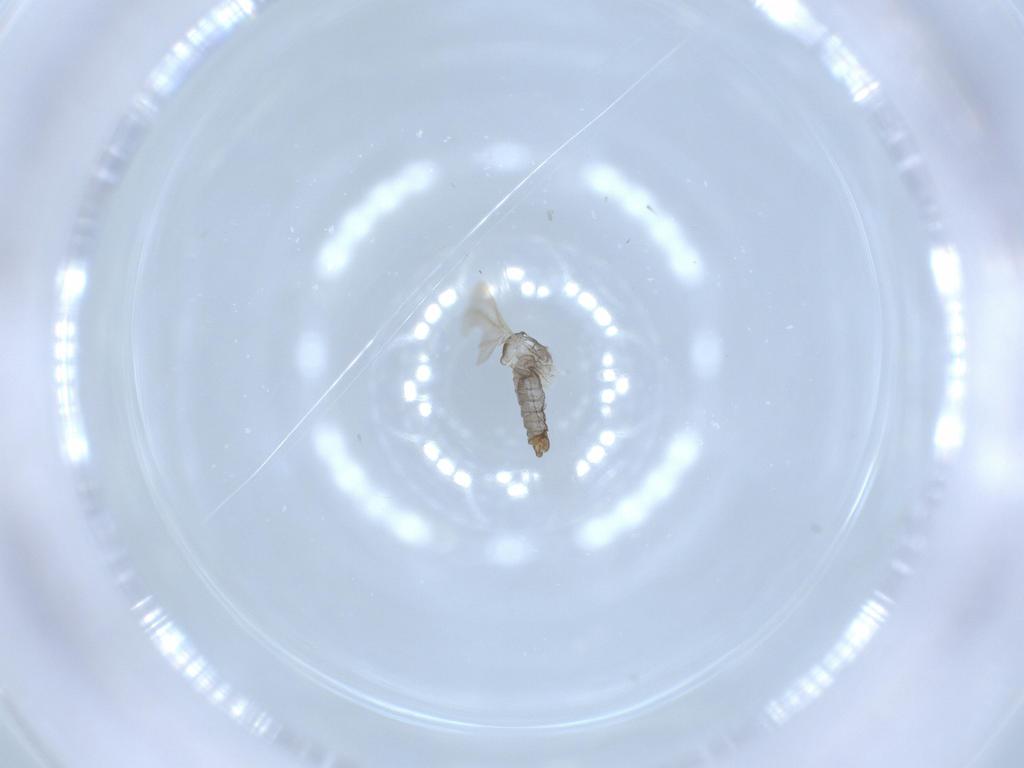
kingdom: Animalia
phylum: Arthropoda
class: Insecta
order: Diptera
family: Cecidomyiidae
